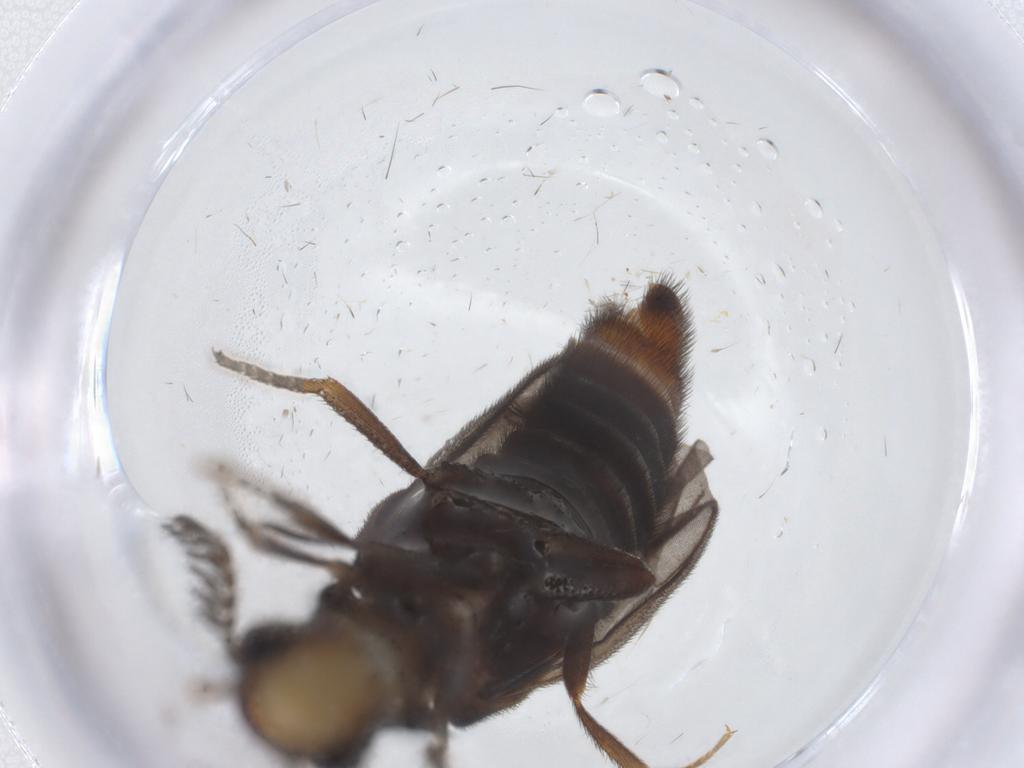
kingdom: Animalia
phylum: Arthropoda
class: Insecta
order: Coleoptera
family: Phengodidae
